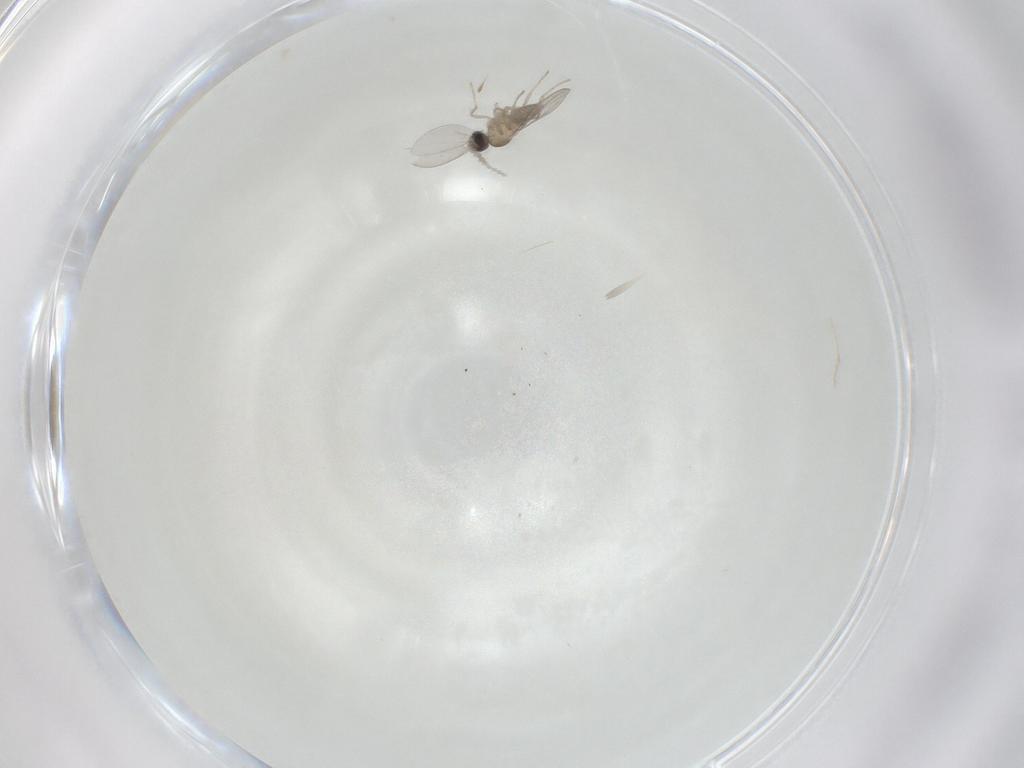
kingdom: Animalia
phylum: Arthropoda
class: Insecta
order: Diptera
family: Cecidomyiidae
